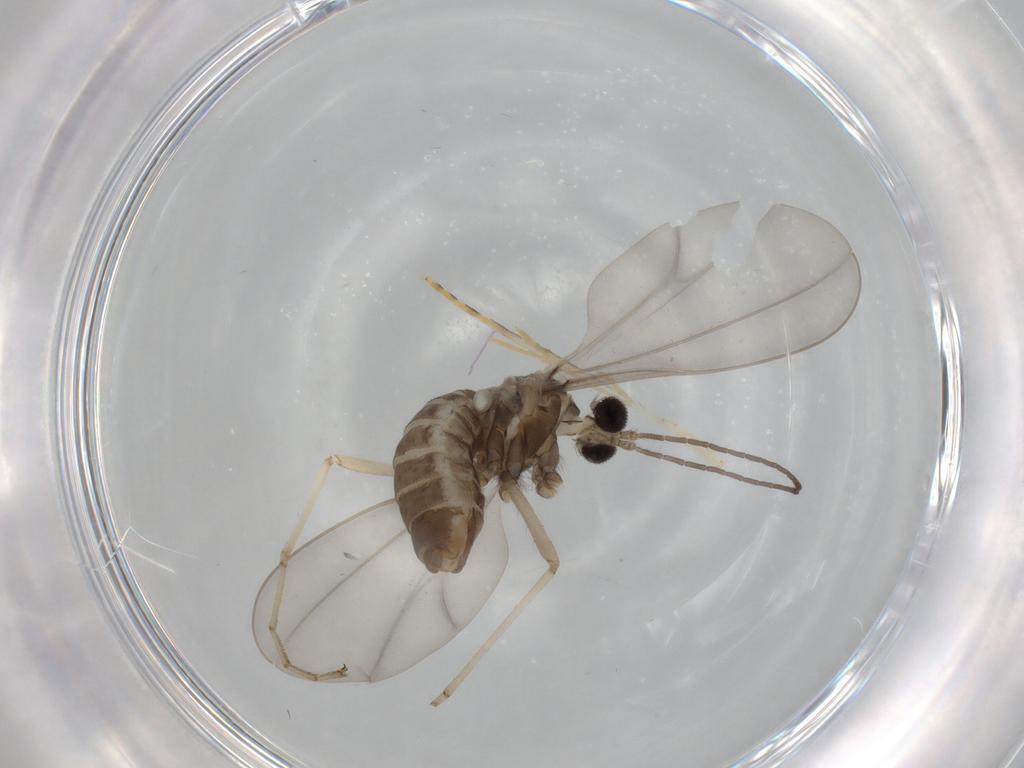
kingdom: Animalia
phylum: Arthropoda
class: Insecta
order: Diptera
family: Cecidomyiidae
